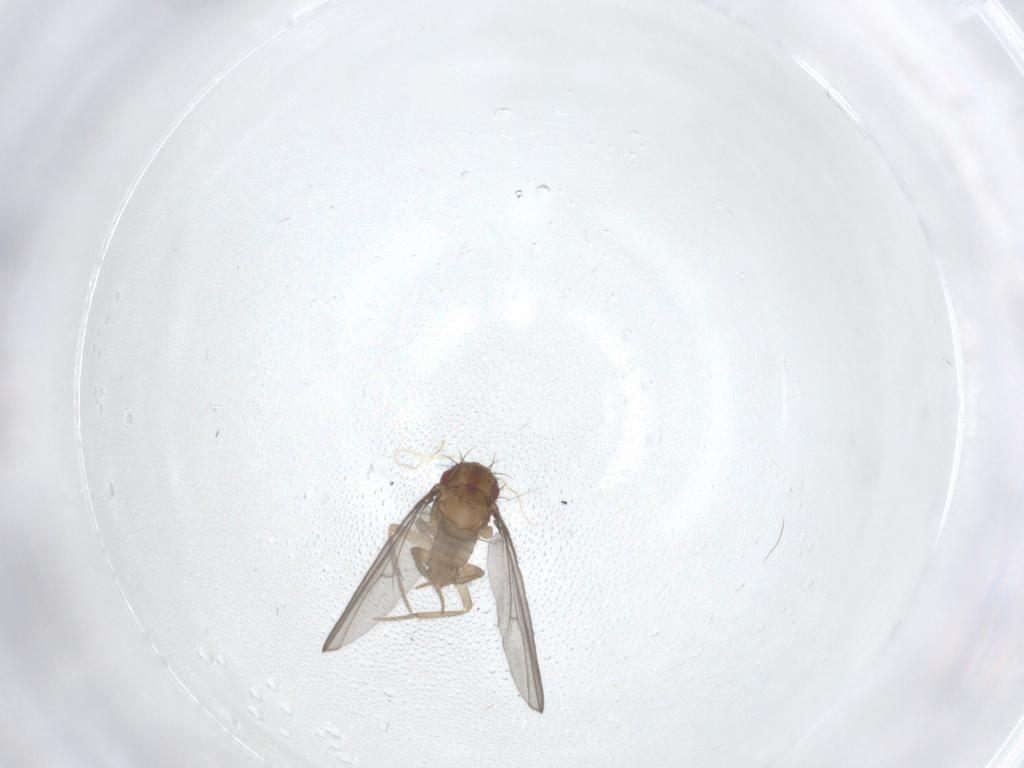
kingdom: Animalia
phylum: Arthropoda
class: Insecta
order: Diptera
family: Drosophilidae
